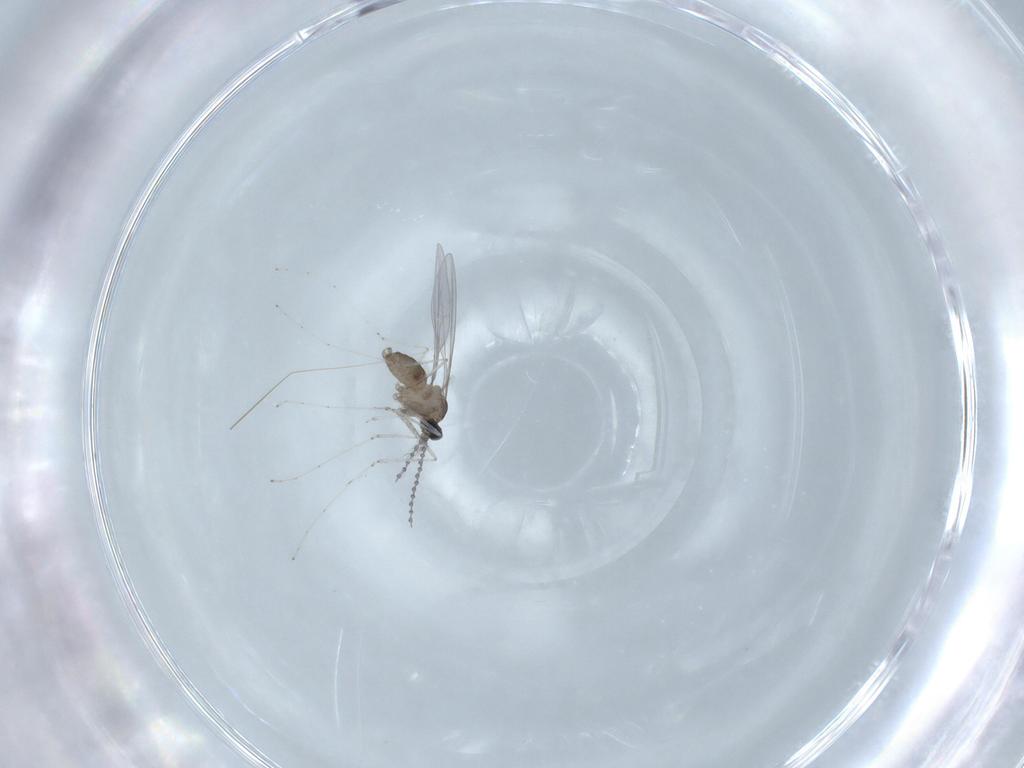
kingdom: Animalia
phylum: Arthropoda
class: Insecta
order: Diptera
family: Cecidomyiidae
